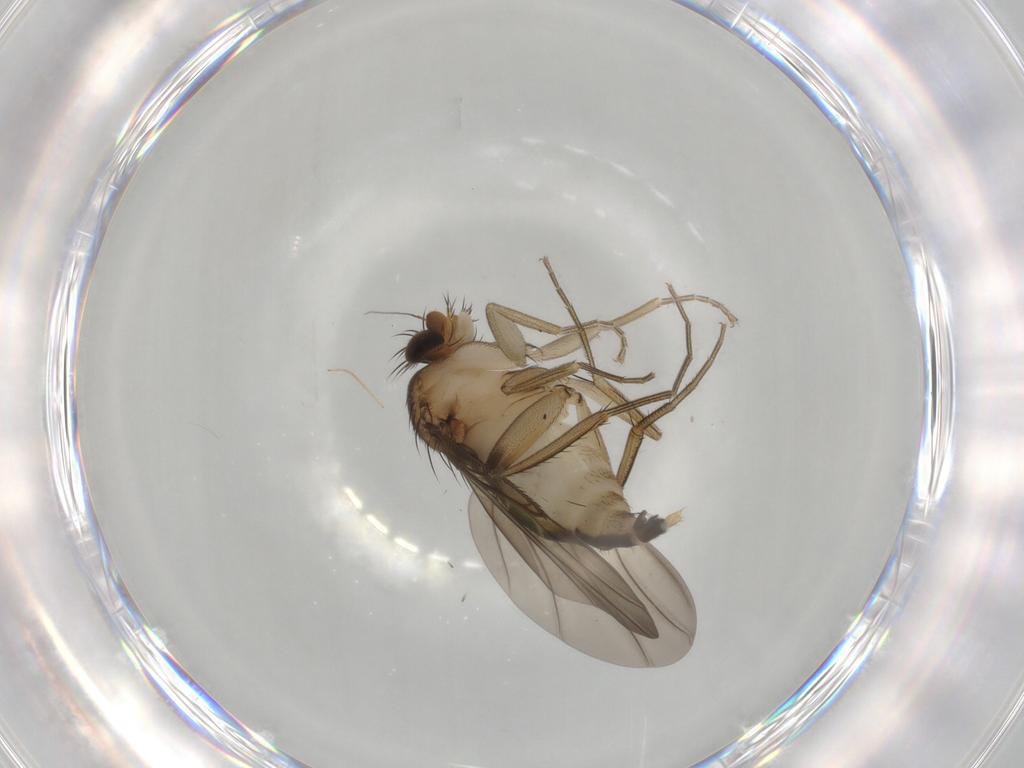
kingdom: Animalia
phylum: Arthropoda
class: Insecta
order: Diptera
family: Phoridae
